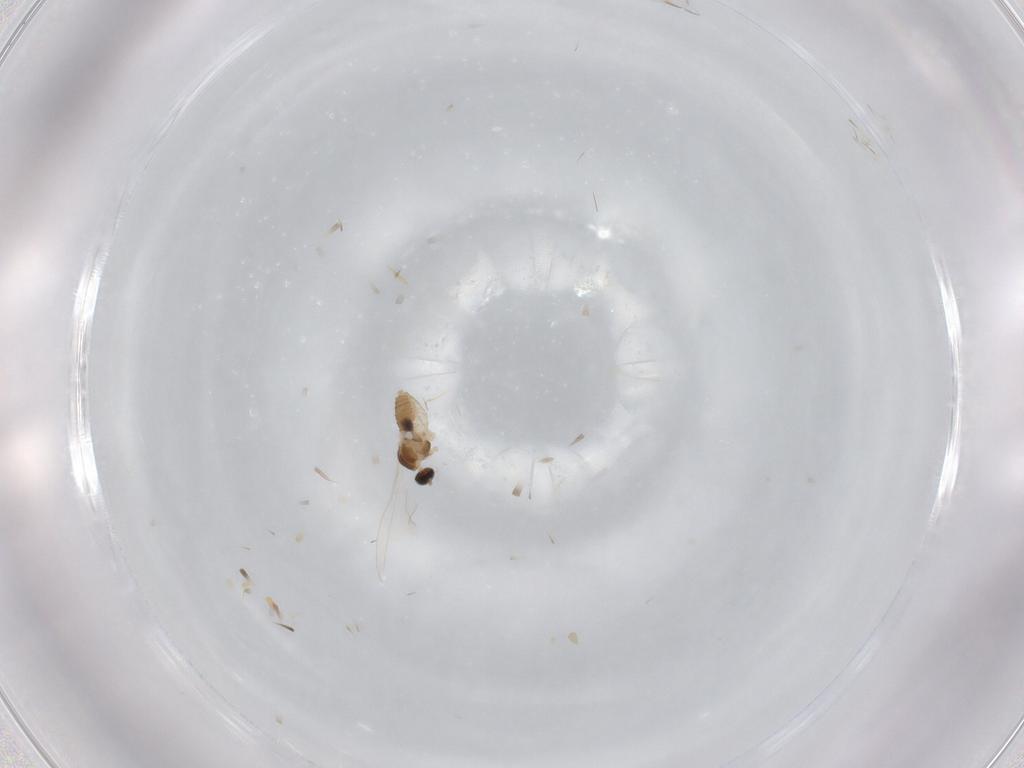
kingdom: Animalia
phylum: Arthropoda
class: Insecta
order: Diptera
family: Cecidomyiidae
